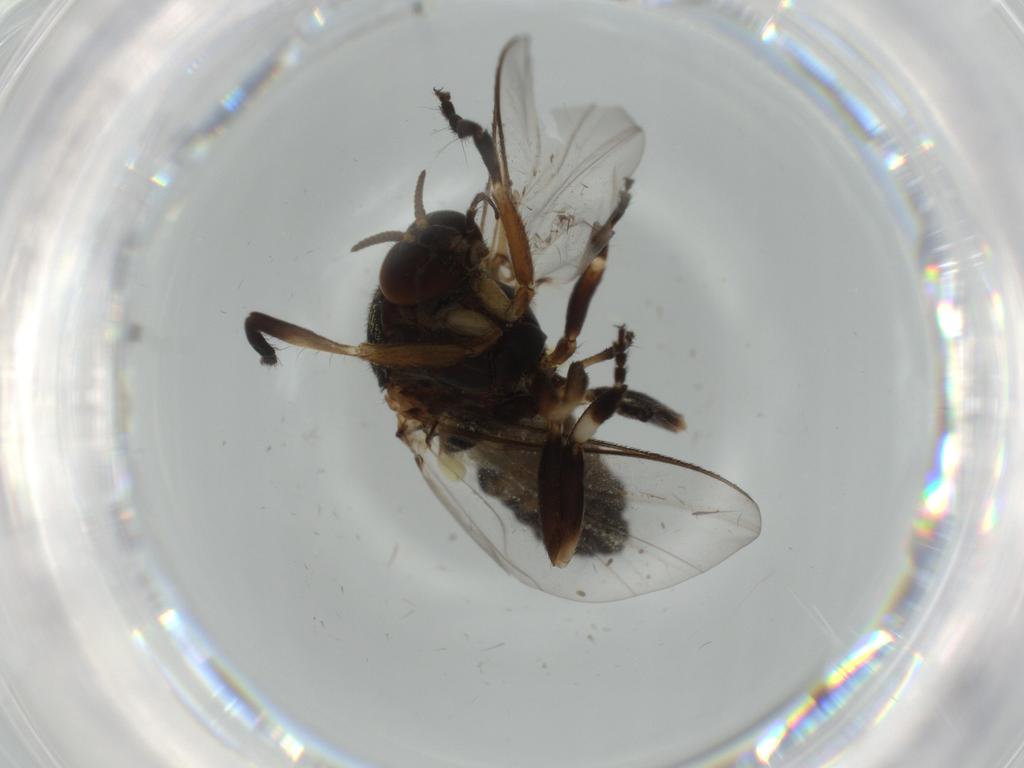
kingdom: Animalia
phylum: Arthropoda
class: Insecta
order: Diptera
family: Cecidomyiidae
